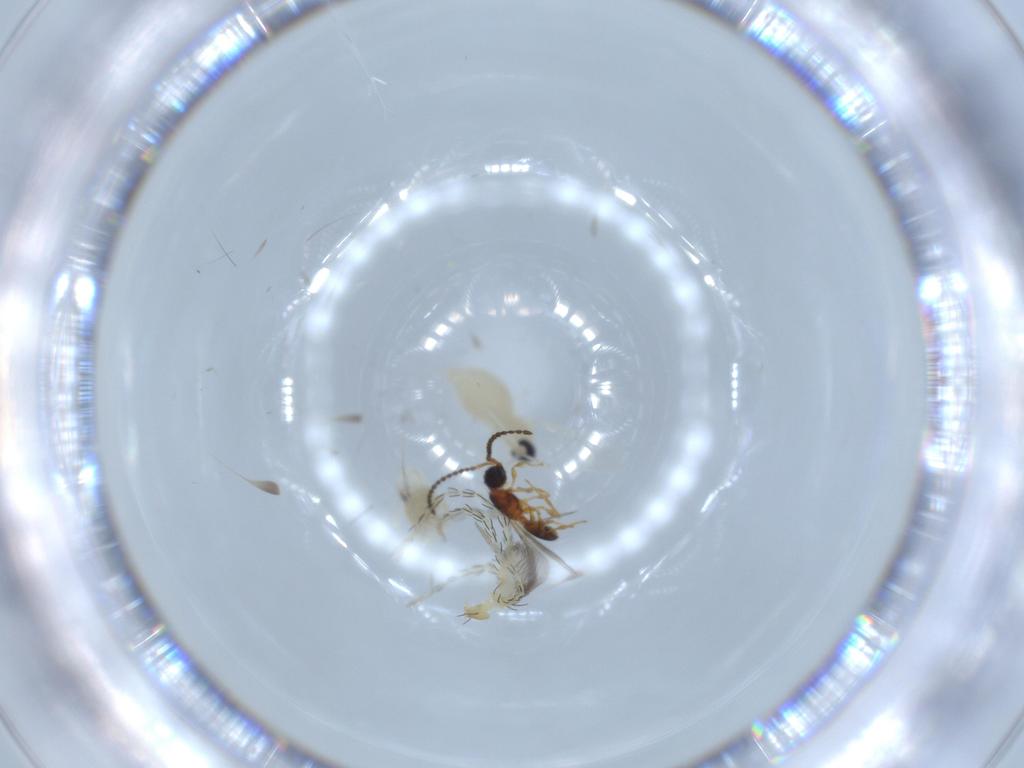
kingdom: Animalia
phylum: Arthropoda
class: Insecta
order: Diptera
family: Cecidomyiidae
